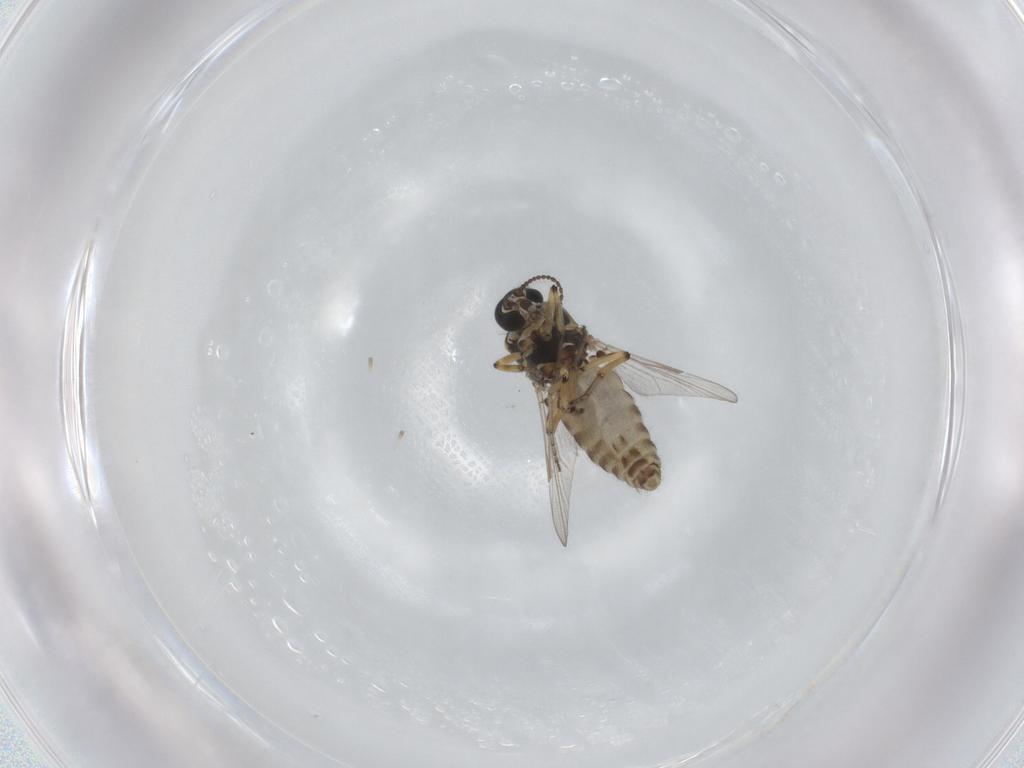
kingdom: Animalia
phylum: Arthropoda
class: Insecta
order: Diptera
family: Ceratopogonidae
